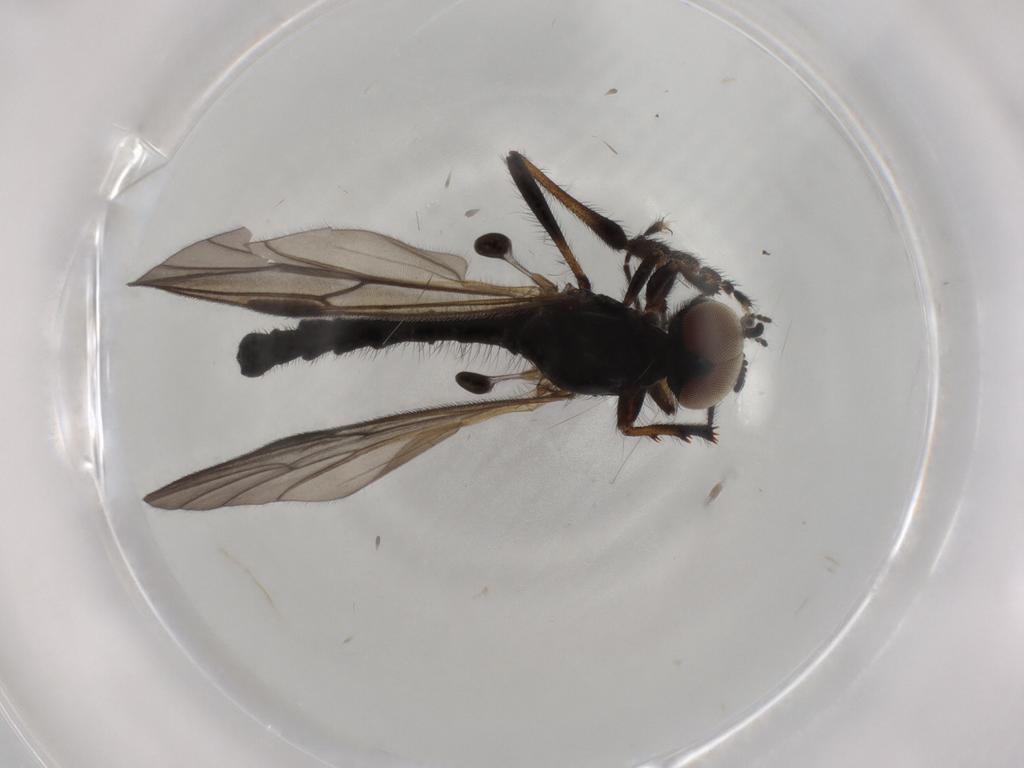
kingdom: Animalia
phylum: Arthropoda
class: Insecta
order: Diptera
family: Bibionidae
